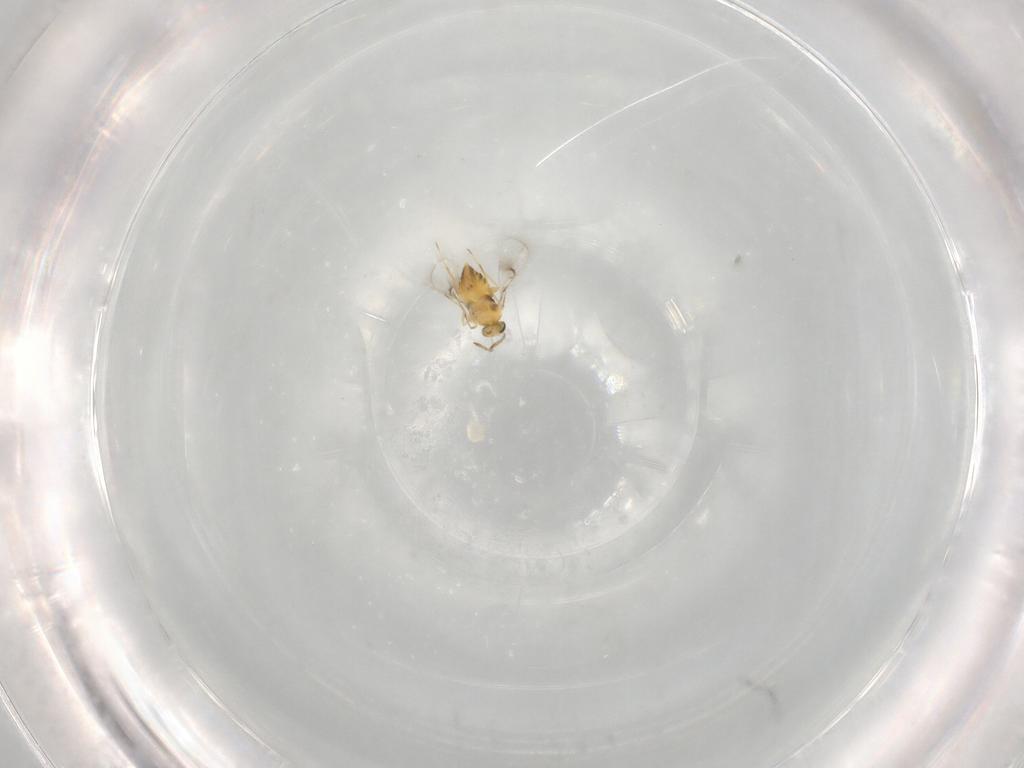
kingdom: Animalia
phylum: Arthropoda
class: Insecta
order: Hymenoptera
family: Trichogrammatidae
